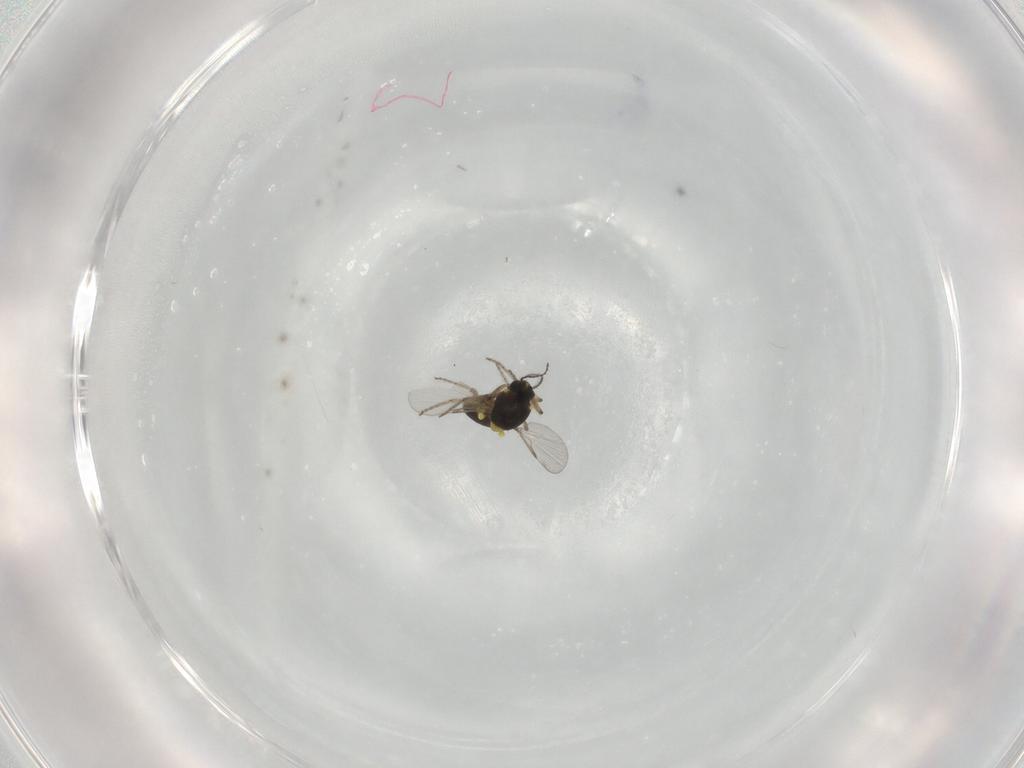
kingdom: Animalia
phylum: Arthropoda
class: Insecta
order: Diptera
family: Ceratopogonidae
